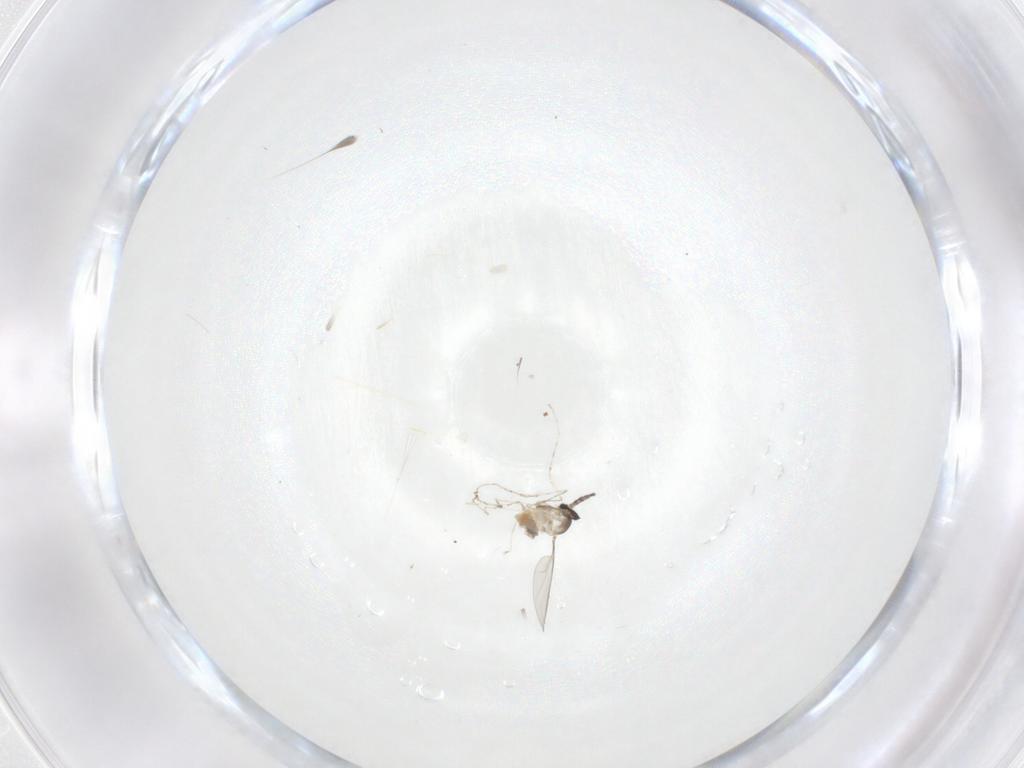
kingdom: Animalia
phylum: Arthropoda
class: Insecta
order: Diptera
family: Cecidomyiidae
